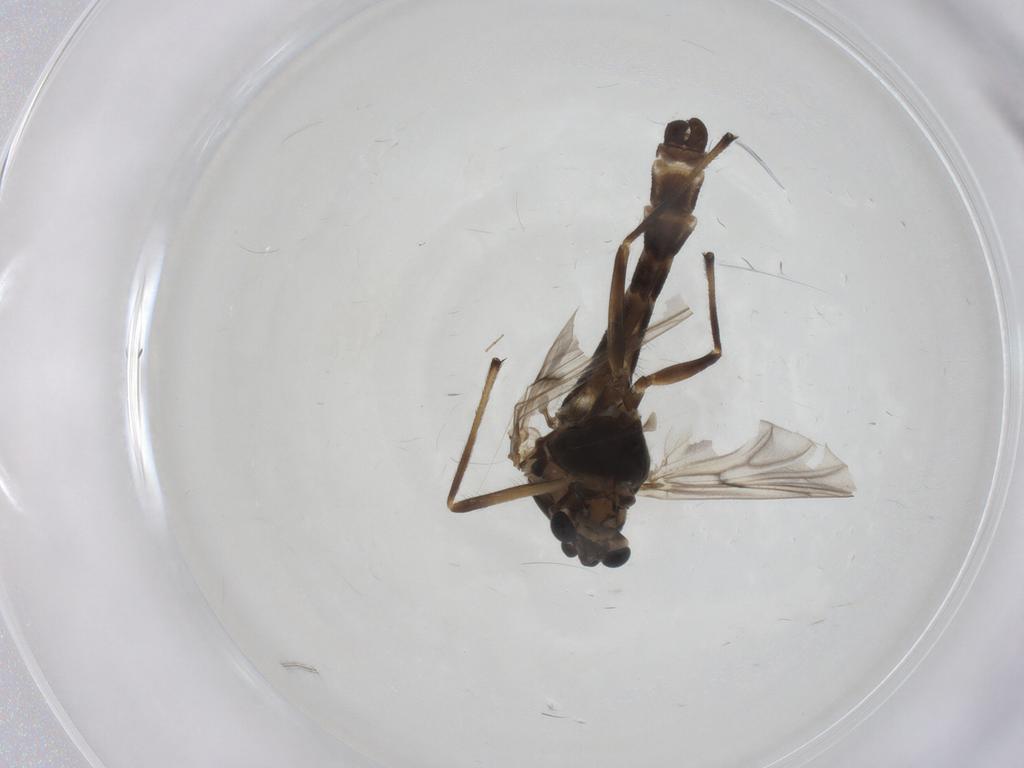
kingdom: Animalia
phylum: Arthropoda
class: Insecta
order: Diptera
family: Chironomidae
